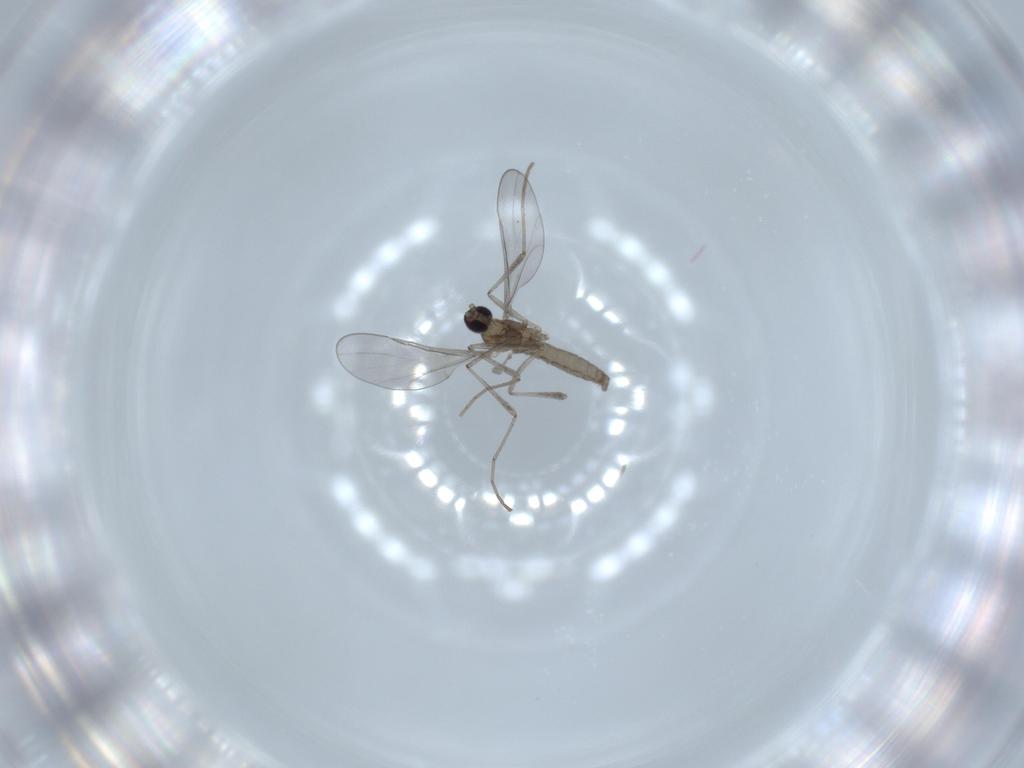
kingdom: Animalia
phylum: Arthropoda
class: Insecta
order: Diptera
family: Cecidomyiidae
